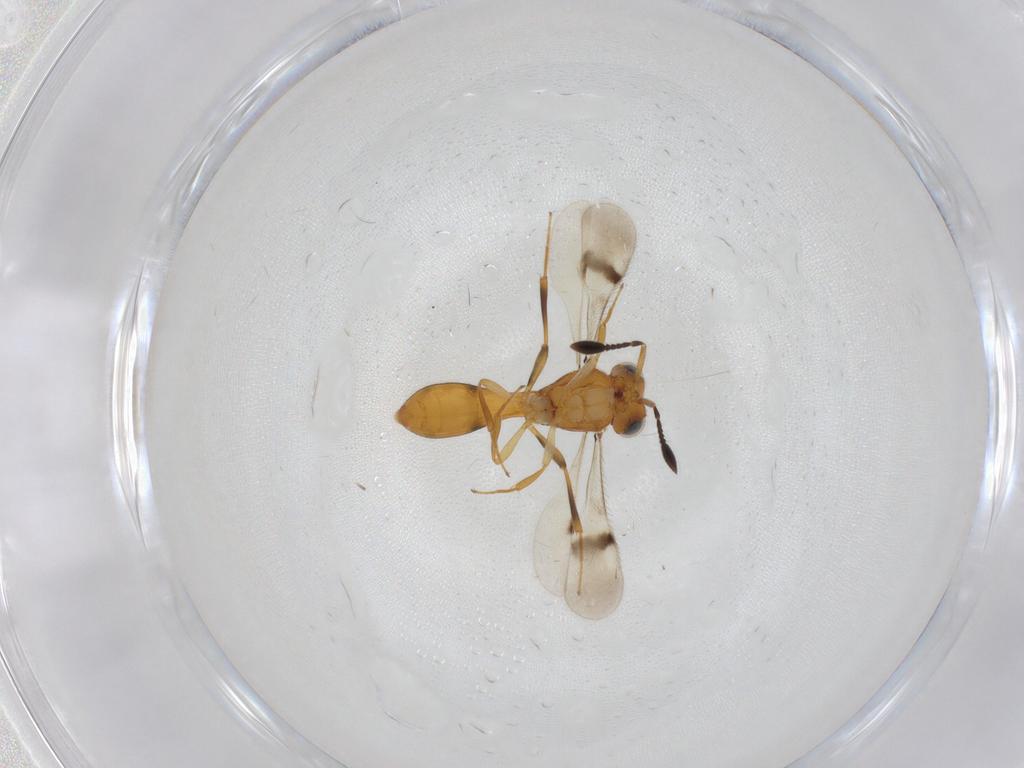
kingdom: Animalia
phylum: Arthropoda
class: Insecta
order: Hymenoptera
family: Scelionidae
